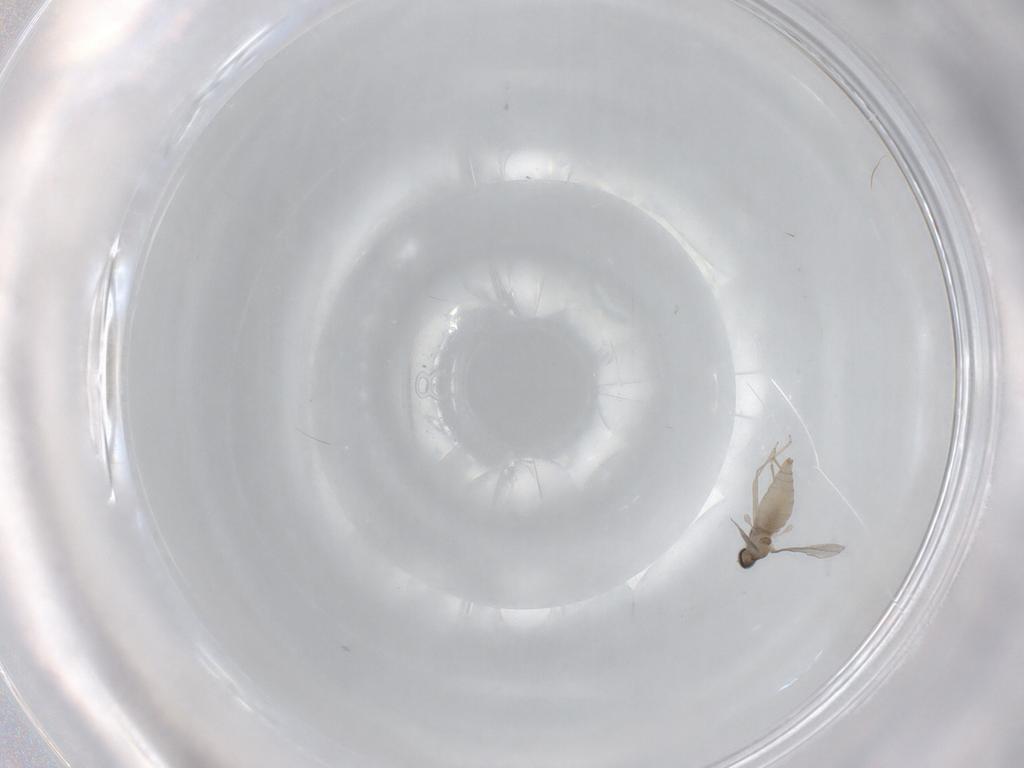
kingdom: Animalia
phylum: Arthropoda
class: Insecta
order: Diptera
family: Cecidomyiidae
